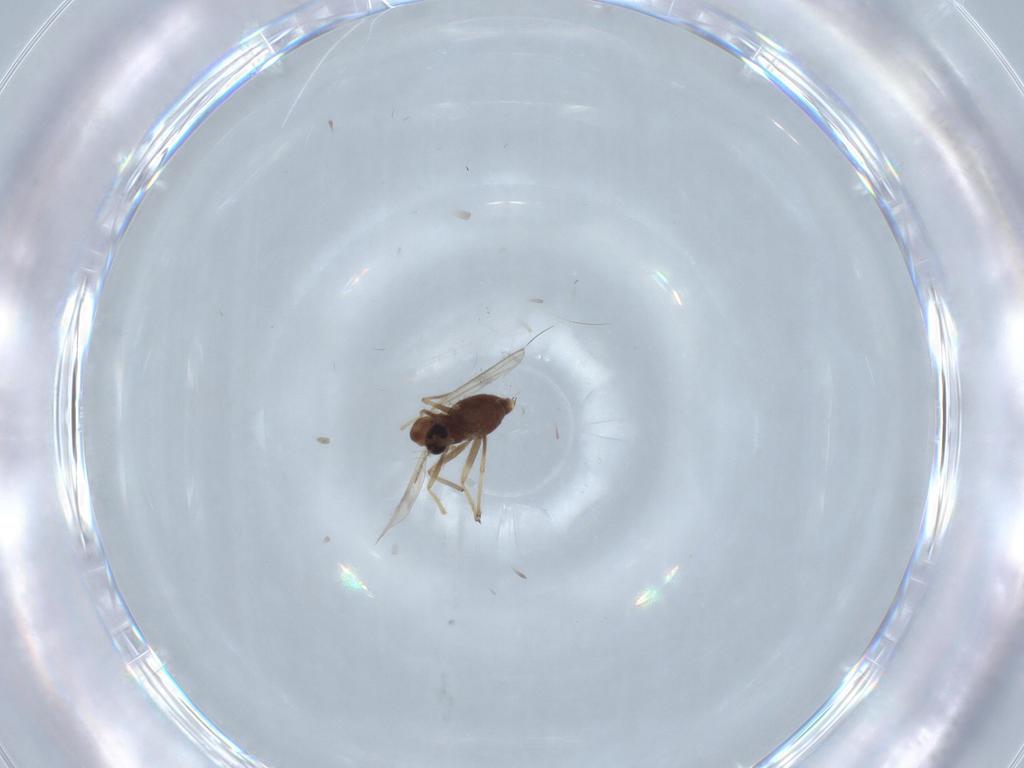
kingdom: Animalia
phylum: Arthropoda
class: Insecta
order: Diptera
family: Chironomidae
